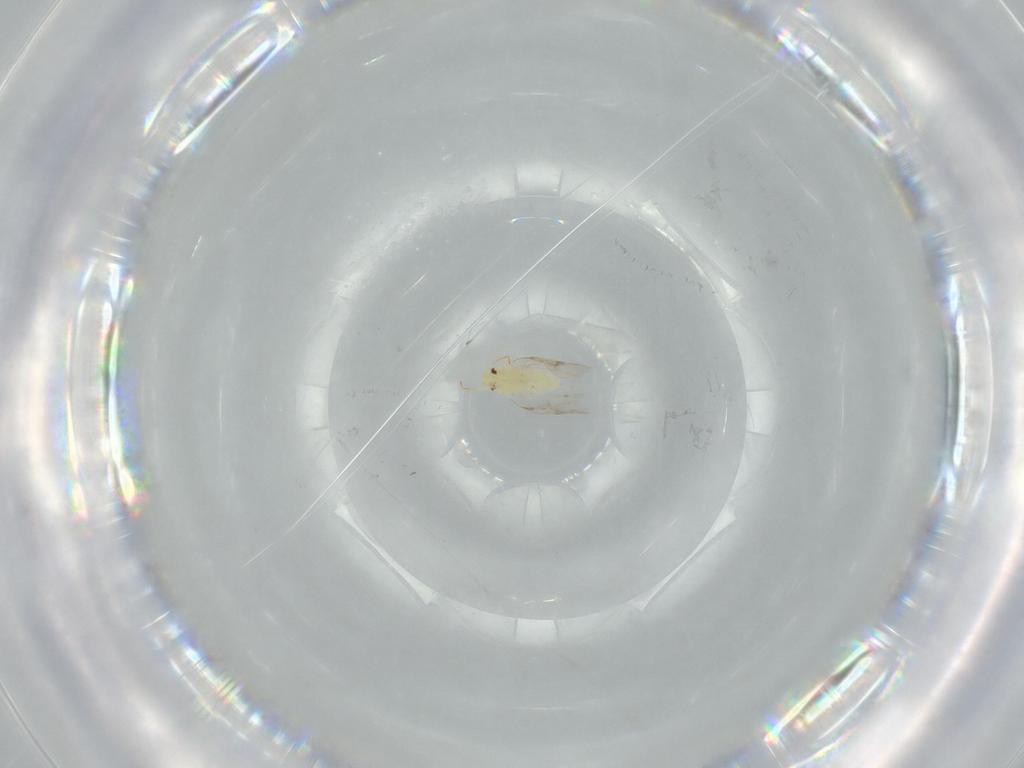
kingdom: Animalia
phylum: Arthropoda
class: Insecta
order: Hemiptera
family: Aleyrodidae
